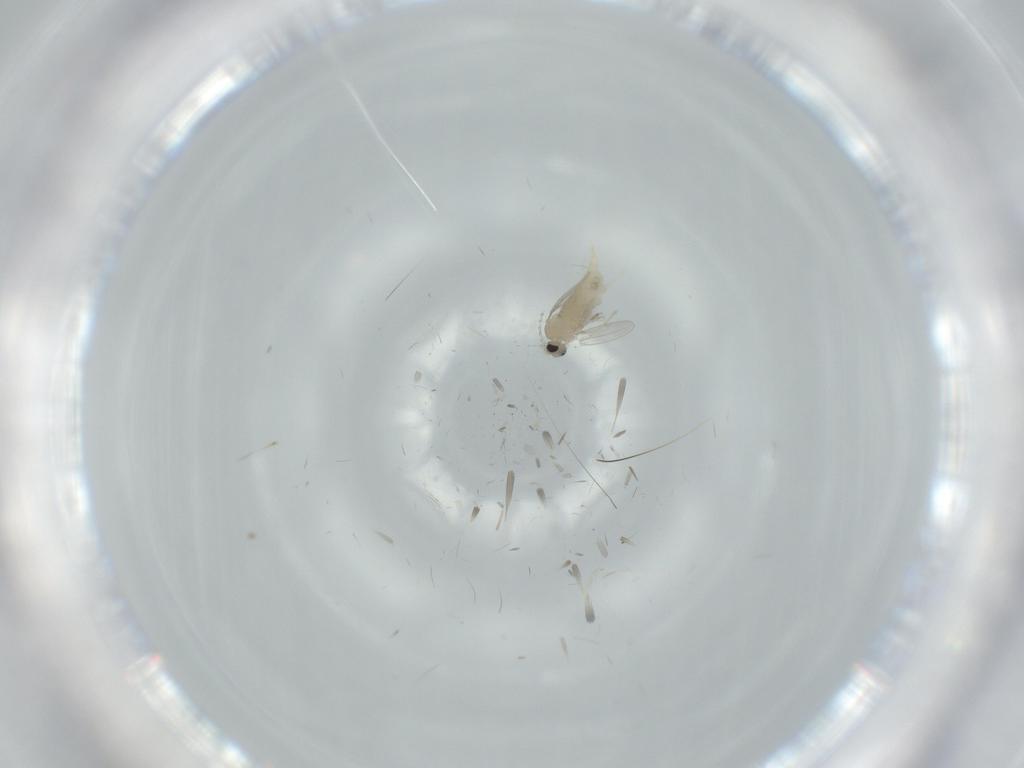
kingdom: Animalia
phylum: Arthropoda
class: Insecta
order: Diptera
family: Cecidomyiidae
